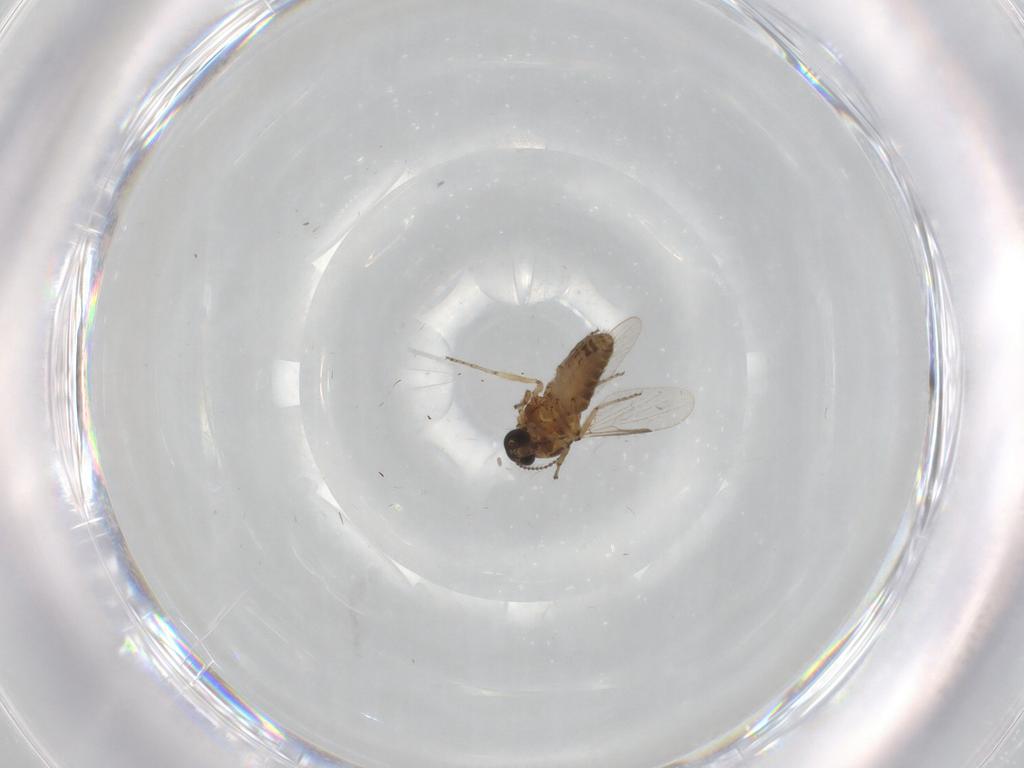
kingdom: Animalia
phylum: Arthropoda
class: Insecta
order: Diptera
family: Ceratopogonidae
